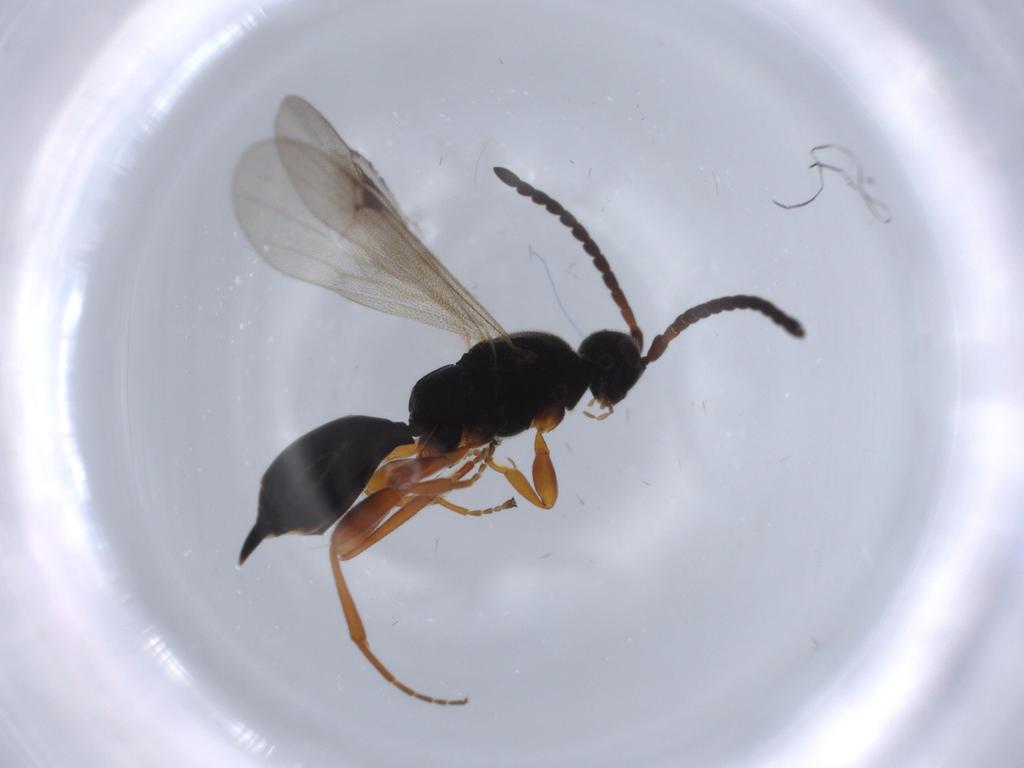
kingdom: Animalia
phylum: Arthropoda
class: Insecta
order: Hymenoptera
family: Proctotrupidae
